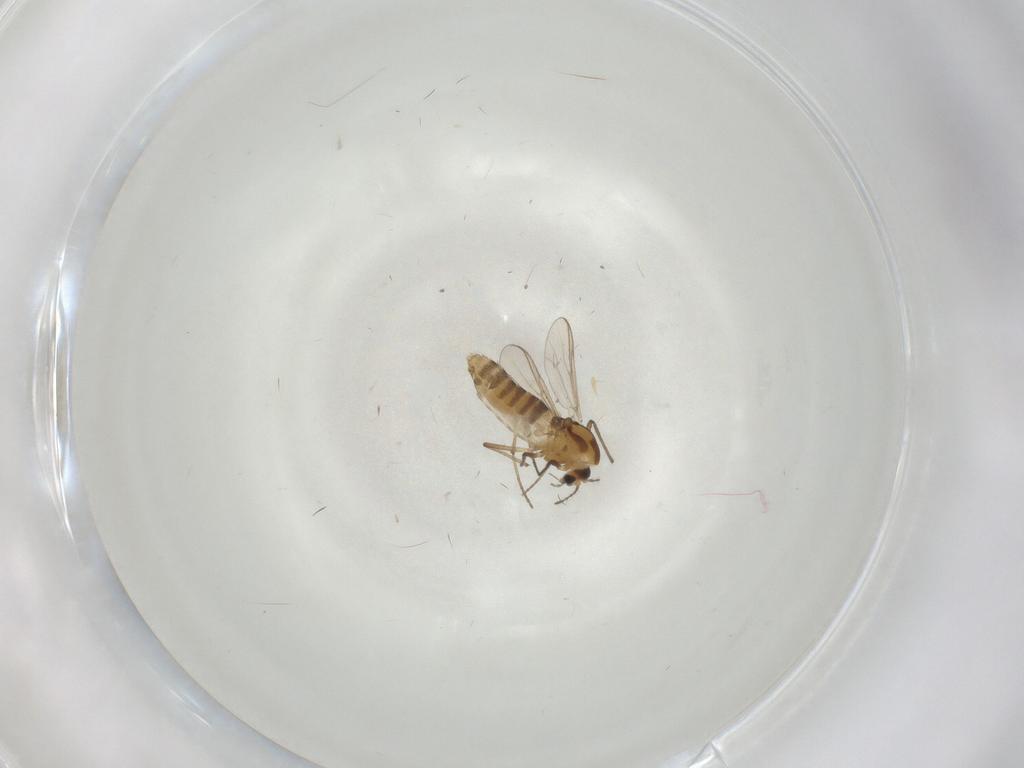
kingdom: Animalia
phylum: Arthropoda
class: Insecta
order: Diptera
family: Chironomidae
